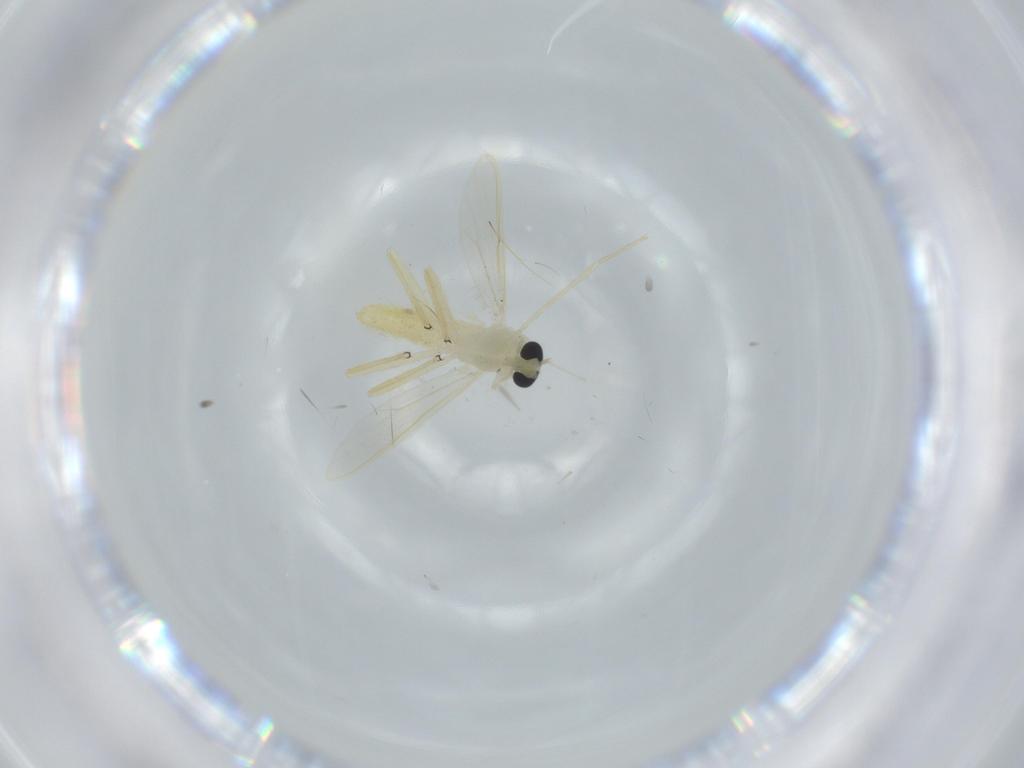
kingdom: Animalia
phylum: Arthropoda
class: Insecta
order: Diptera
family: Chironomidae
